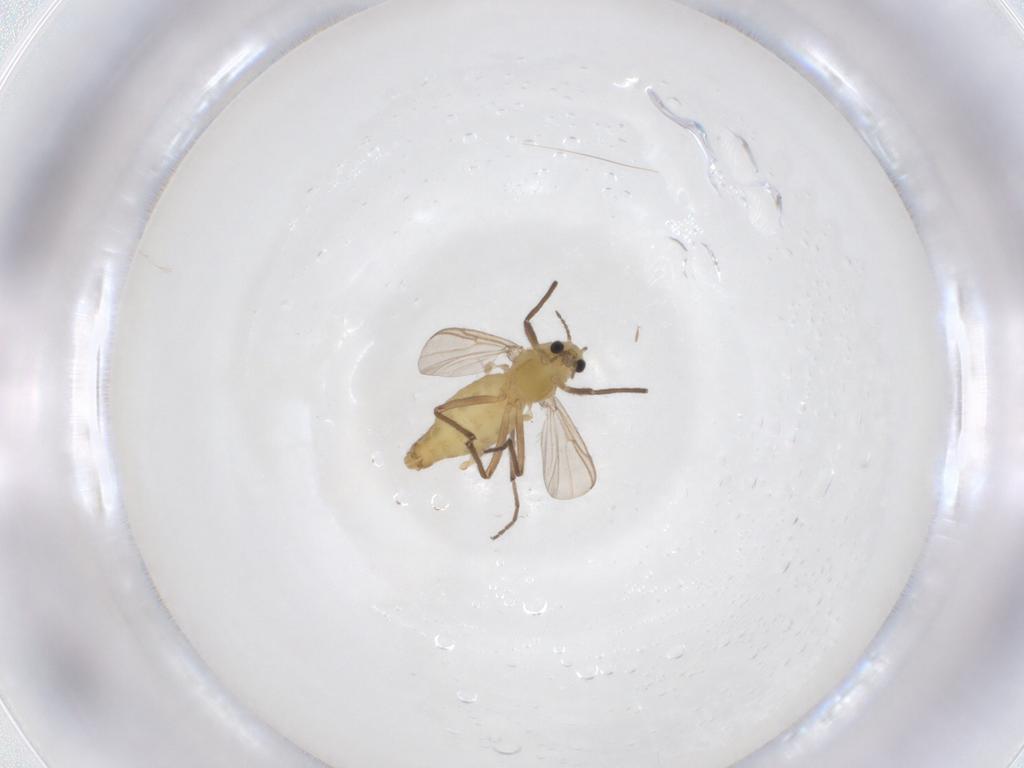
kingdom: Animalia
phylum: Arthropoda
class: Insecta
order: Diptera
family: Chironomidae
